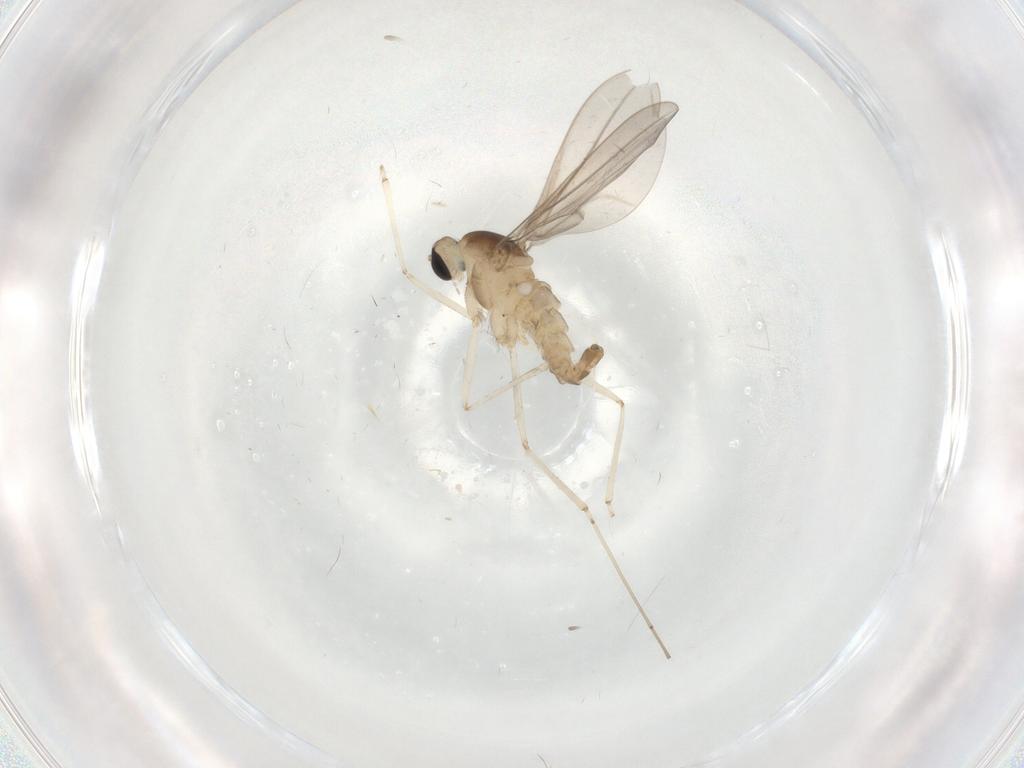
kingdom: Animalia
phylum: Arthropoda
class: Insecta
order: Diptera
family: Cecidomyiidae
